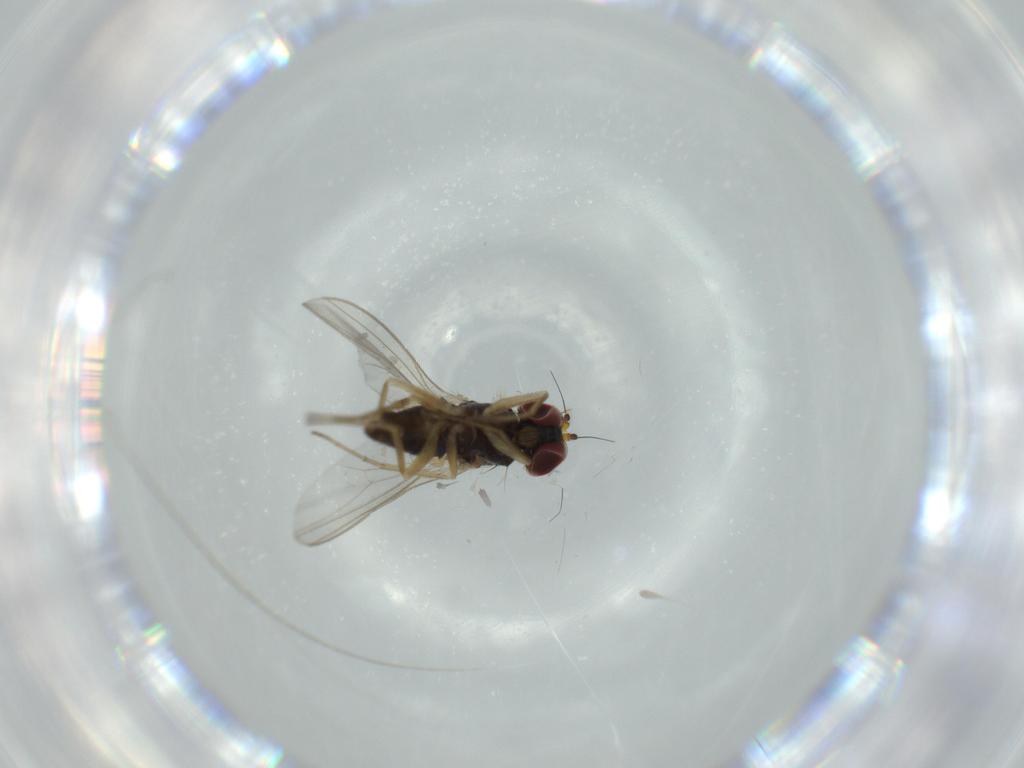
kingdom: Animalia
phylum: Arthropoda
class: Insecta
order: Diptera
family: Dolichopodidae
